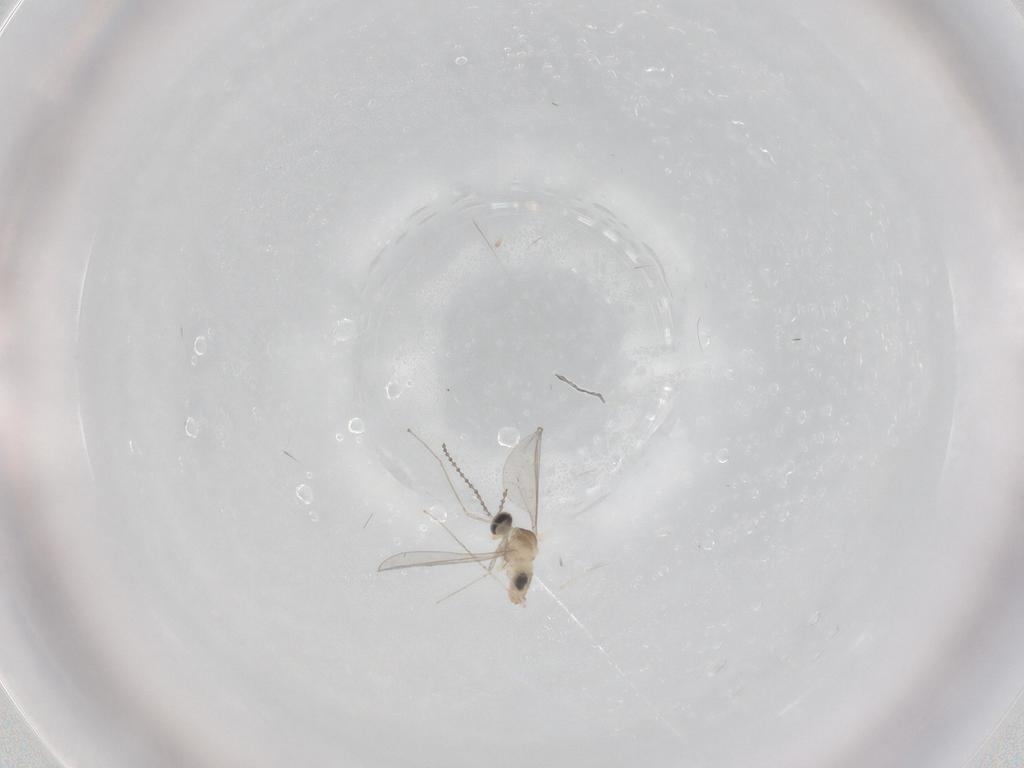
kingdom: Animalia
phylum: Arthropoda
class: Insecta
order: Diptera
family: Cecidomyiidae
